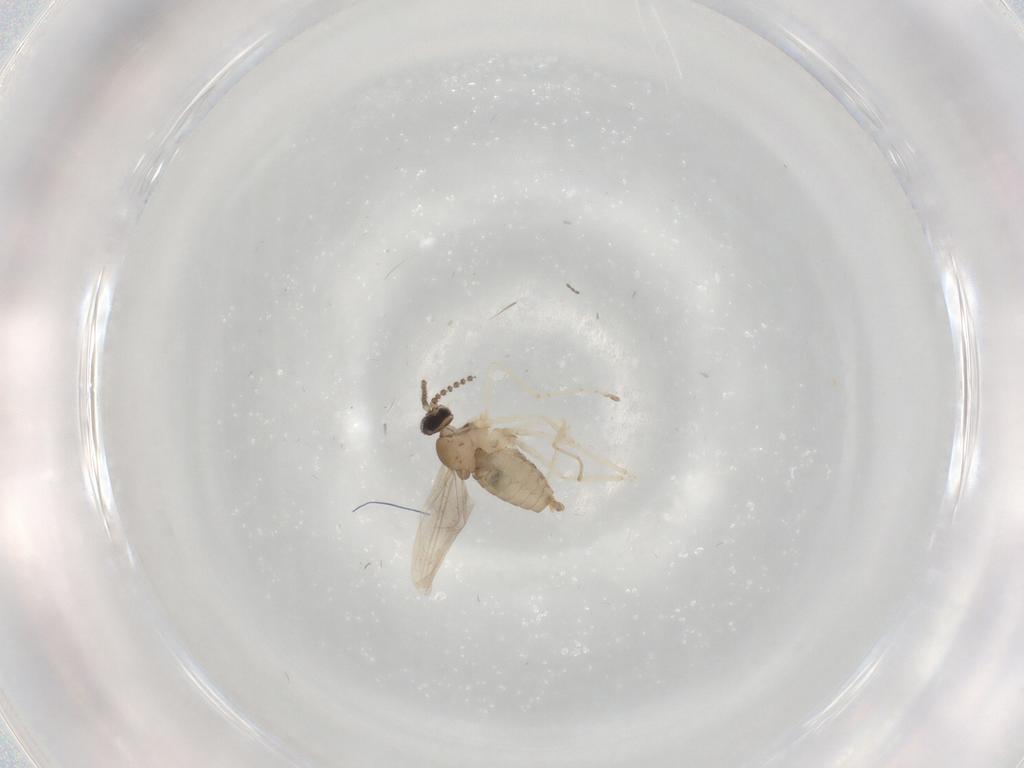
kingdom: Animalia
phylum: Arthropoda
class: Insecta
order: Diptera
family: Cecidomyiidae
